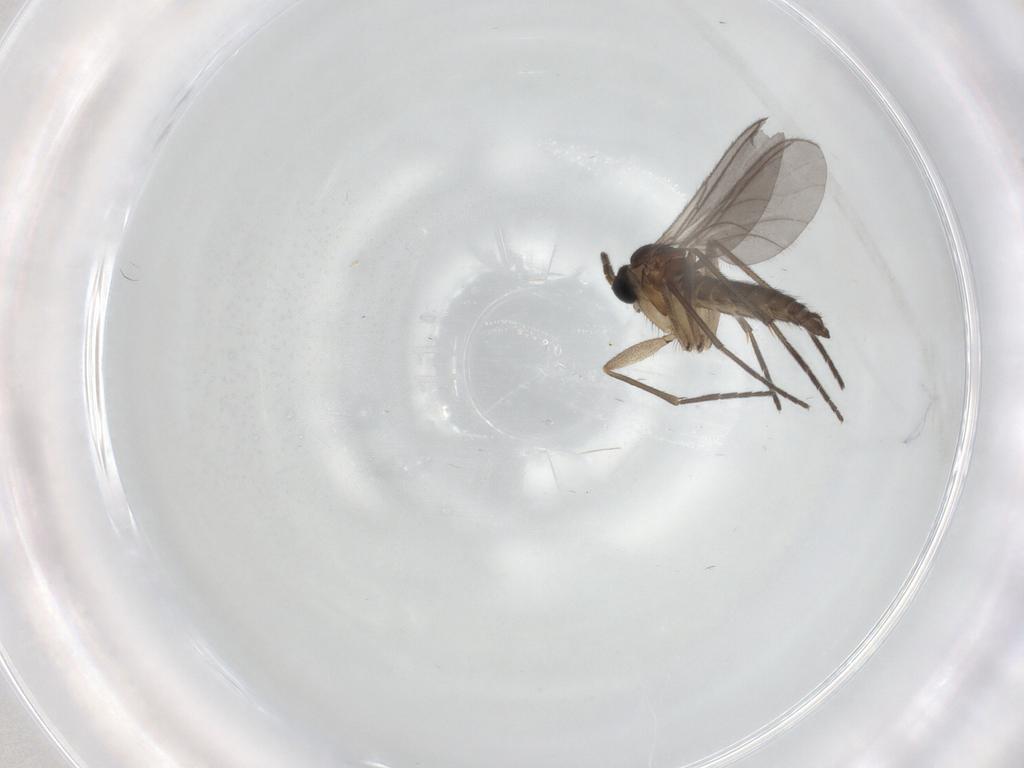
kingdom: Animalia
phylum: Arthropoda
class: Insecta
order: Diptera
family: Sciaridae
